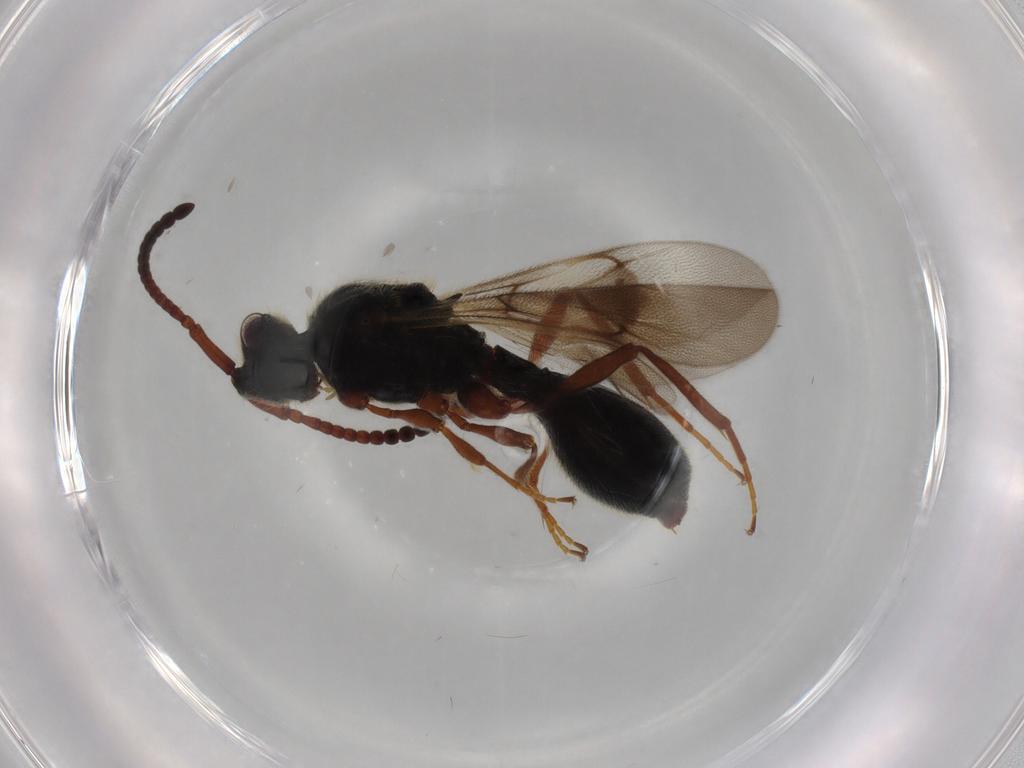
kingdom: Animalia
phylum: Arthropoda
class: Insecta
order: Hymenoptera
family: Diapriidae
